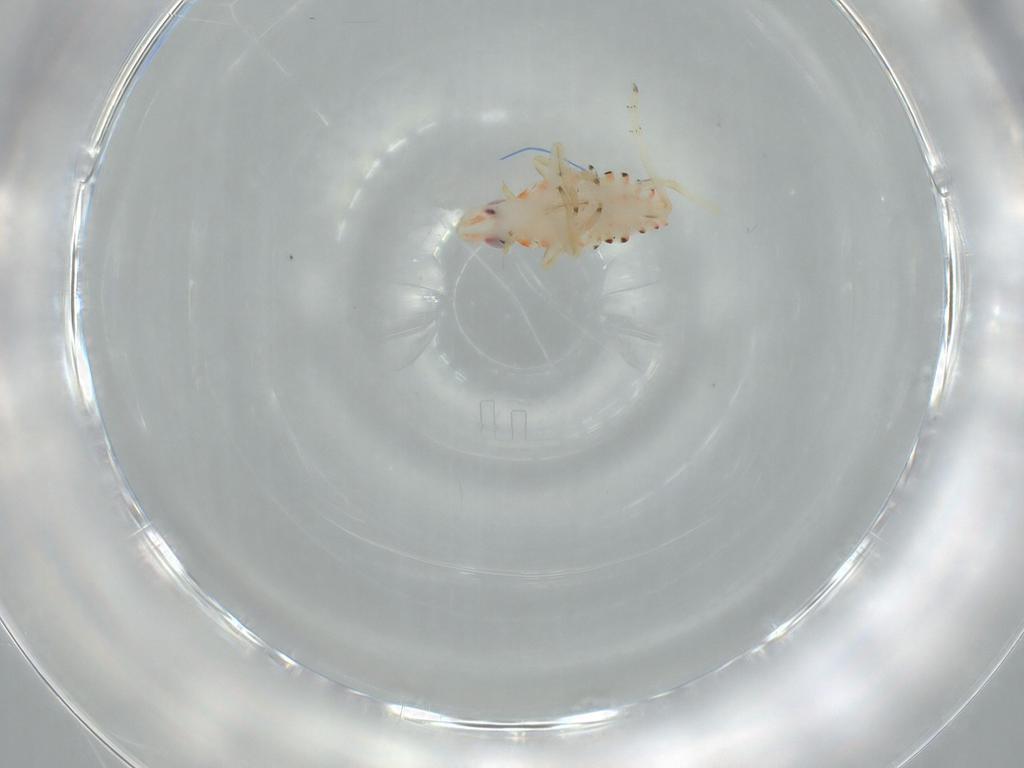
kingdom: Animalia
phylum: Arthropoda
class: Insecta
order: Hemiptera
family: Tropiduchidae
